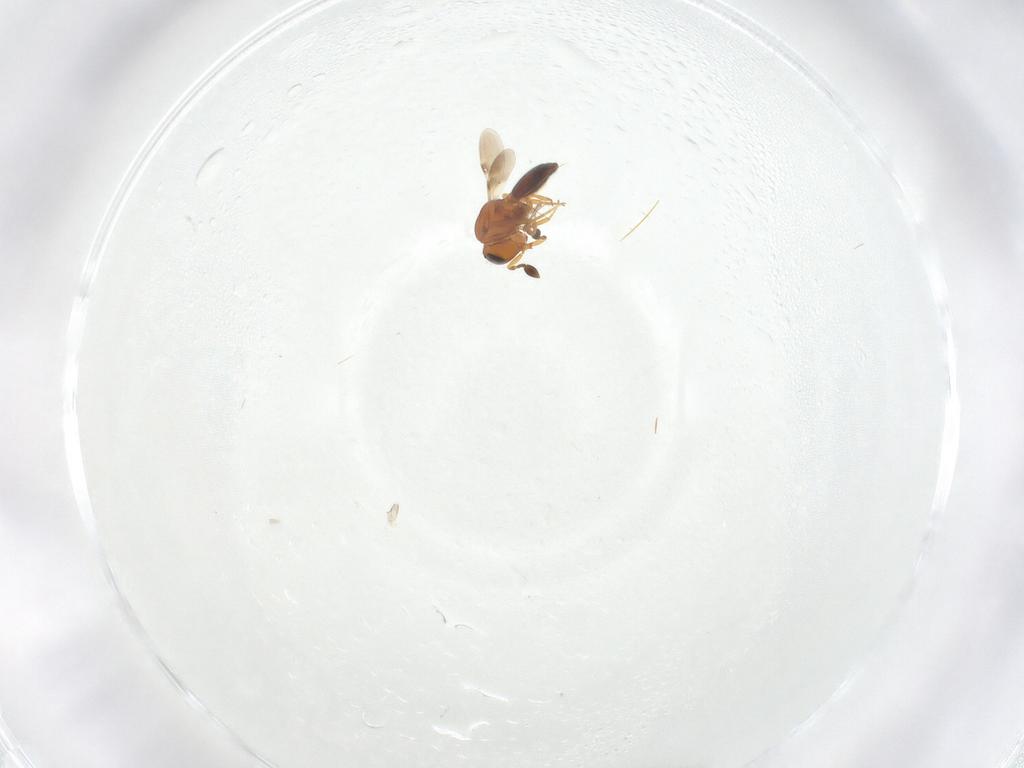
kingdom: Animalia
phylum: Arthropoda
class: Insecta
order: Hymenoptera
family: Scelionidae
